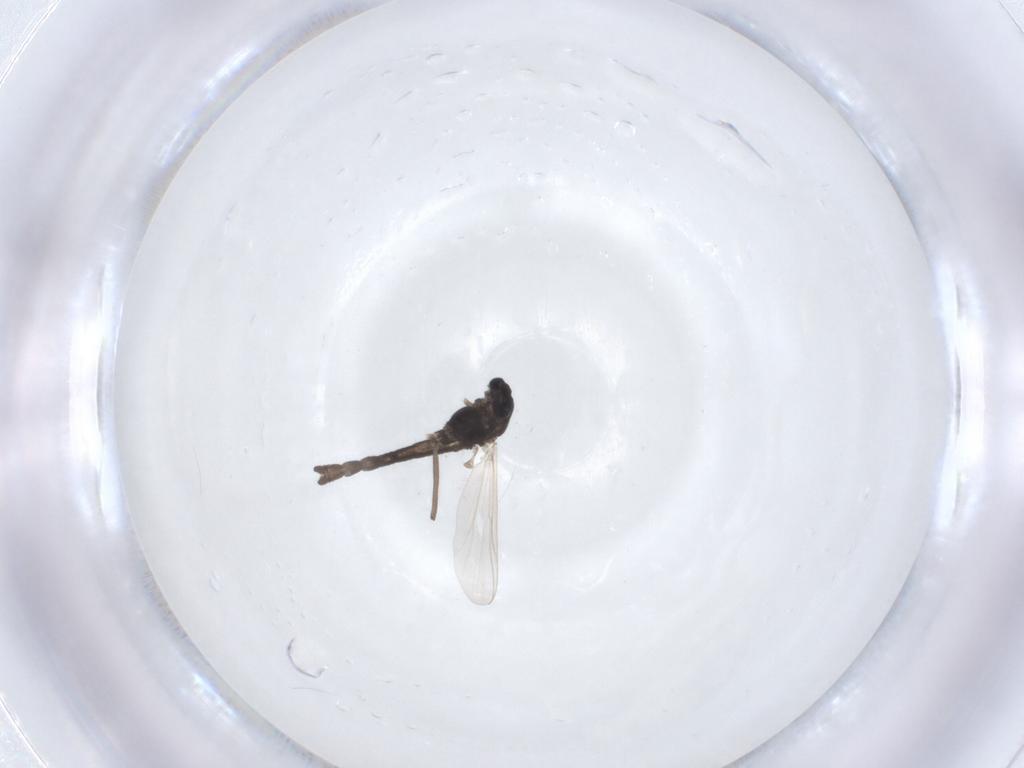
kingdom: Animalia
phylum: Arthropoda
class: Insecta
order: Diptera
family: Chironomidae
